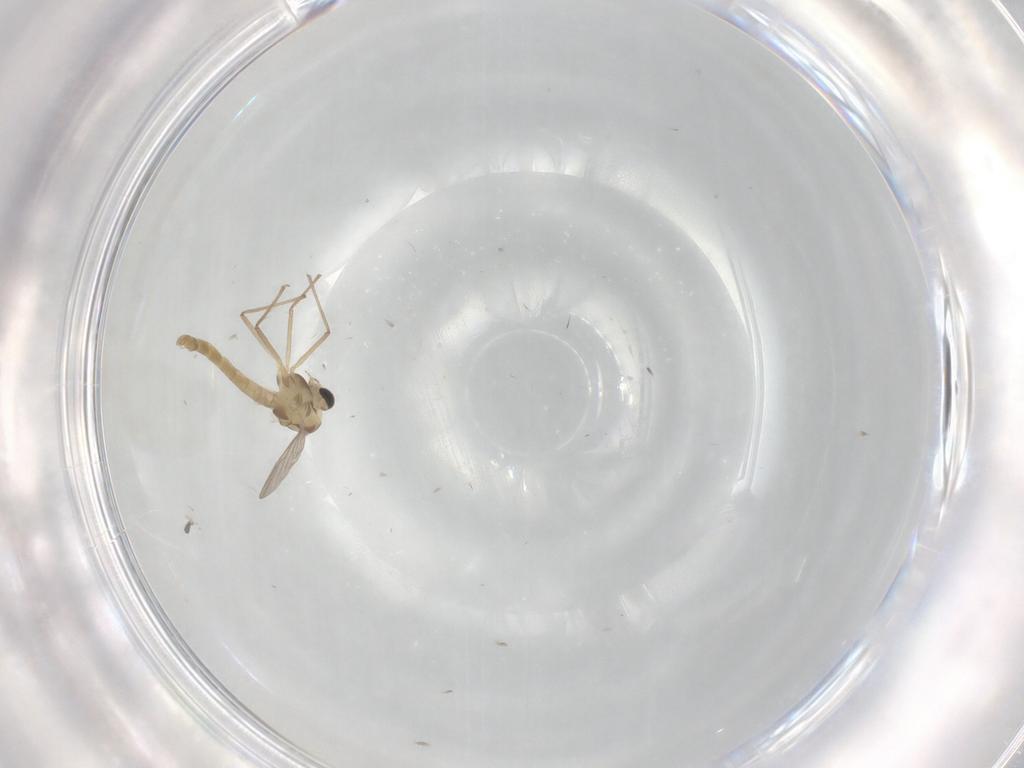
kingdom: Animalia
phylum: Arthropoda
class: Insecta
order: Diptera
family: Chironomidae
